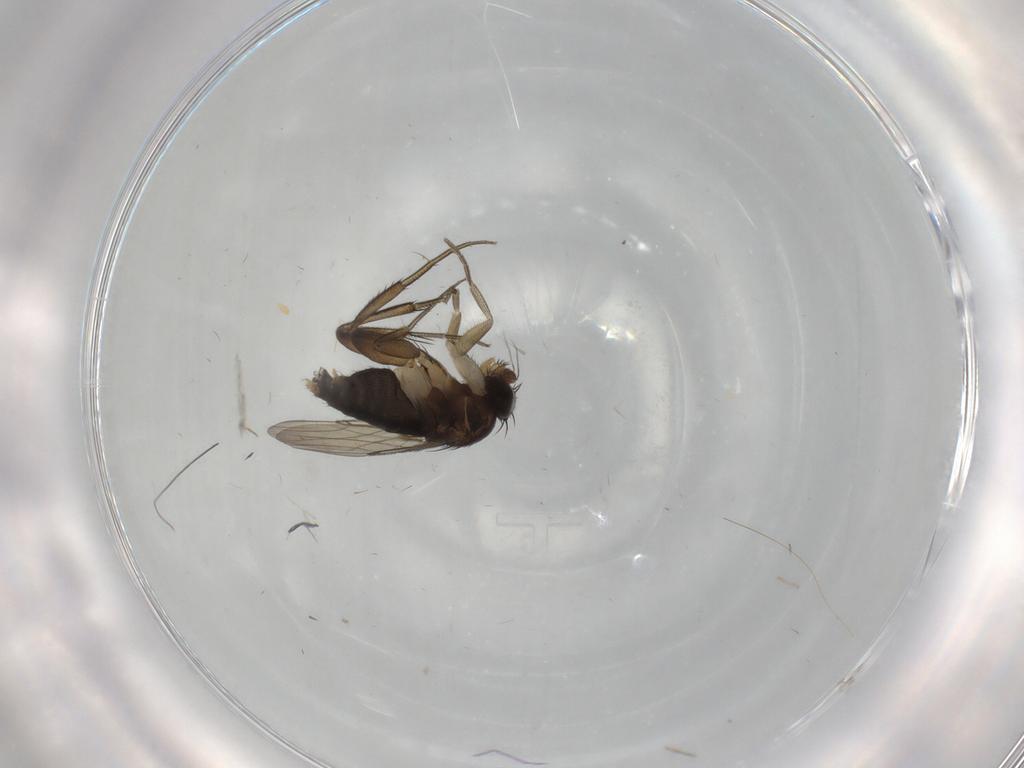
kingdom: Animalia
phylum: Arthropoda
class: Insecta
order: Diptera
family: Phoridae
